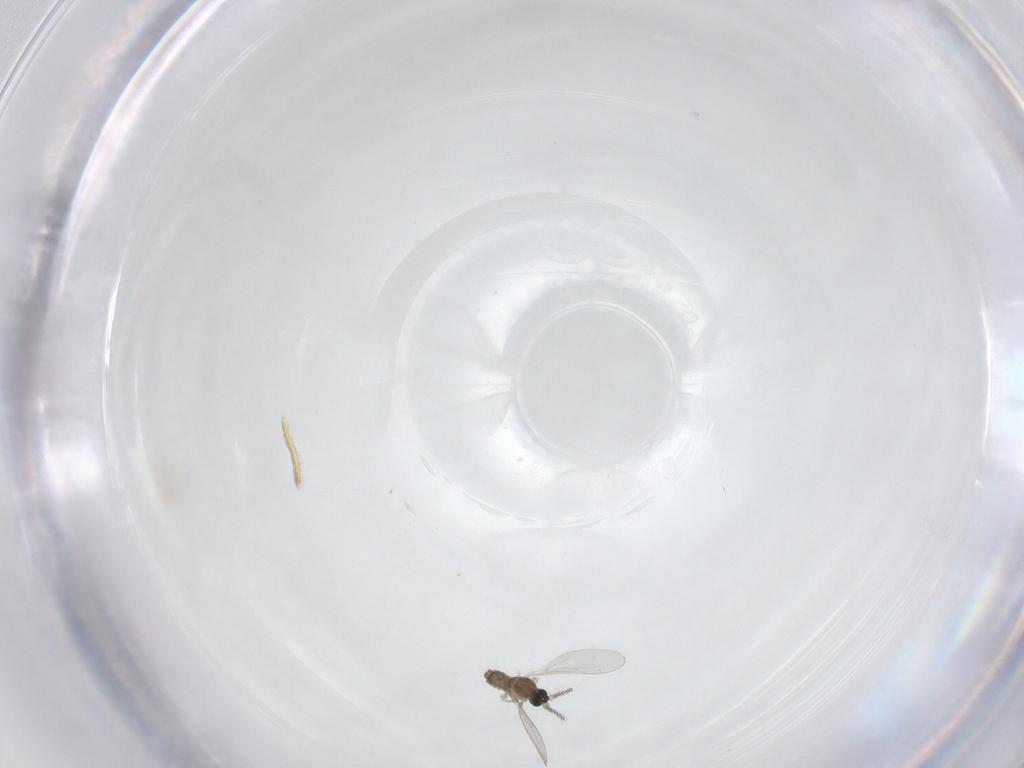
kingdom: Animalia
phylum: Arthropoda
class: Insecta
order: Diptera
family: Cecidomyiidae
